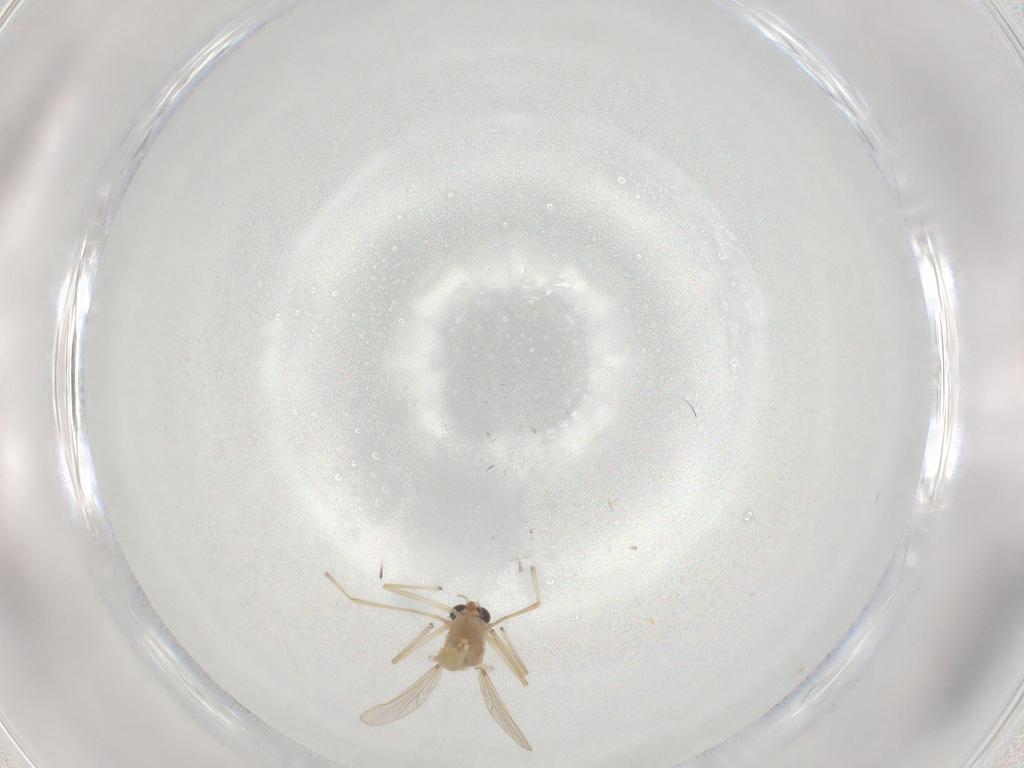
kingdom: Animalia
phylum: Arthropoda
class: Insecta
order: Diptera
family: Chironomidae
